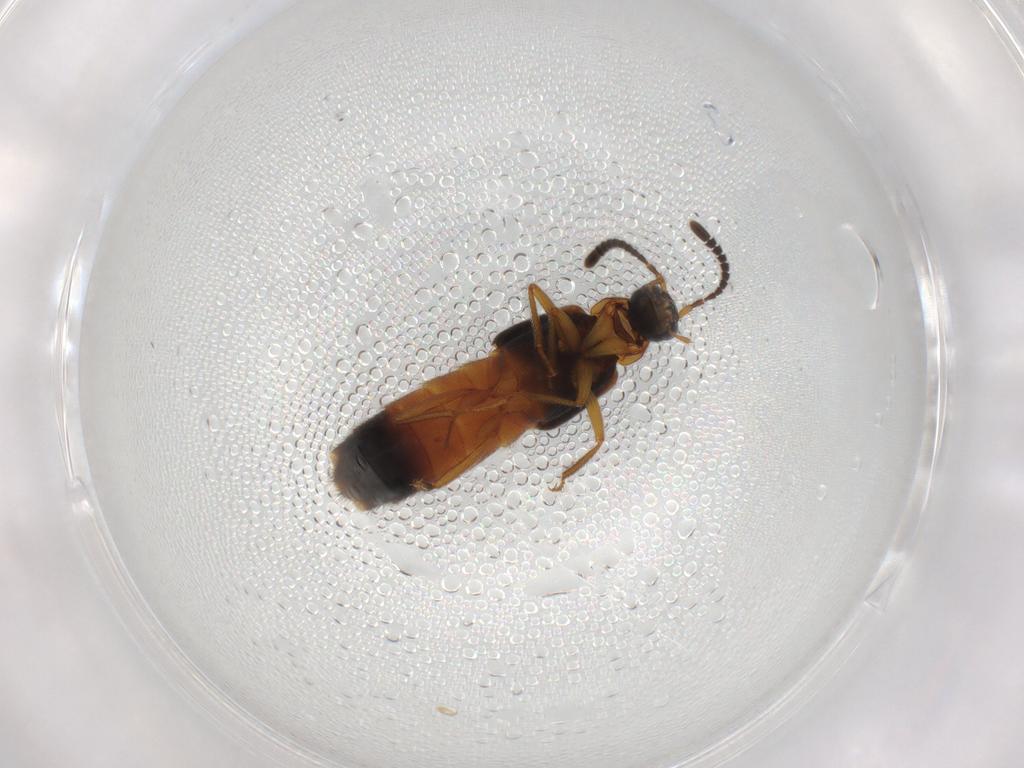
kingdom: Animalia
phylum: Arthropoda
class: Insecta
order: Coleoptera
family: Staphylinidae
